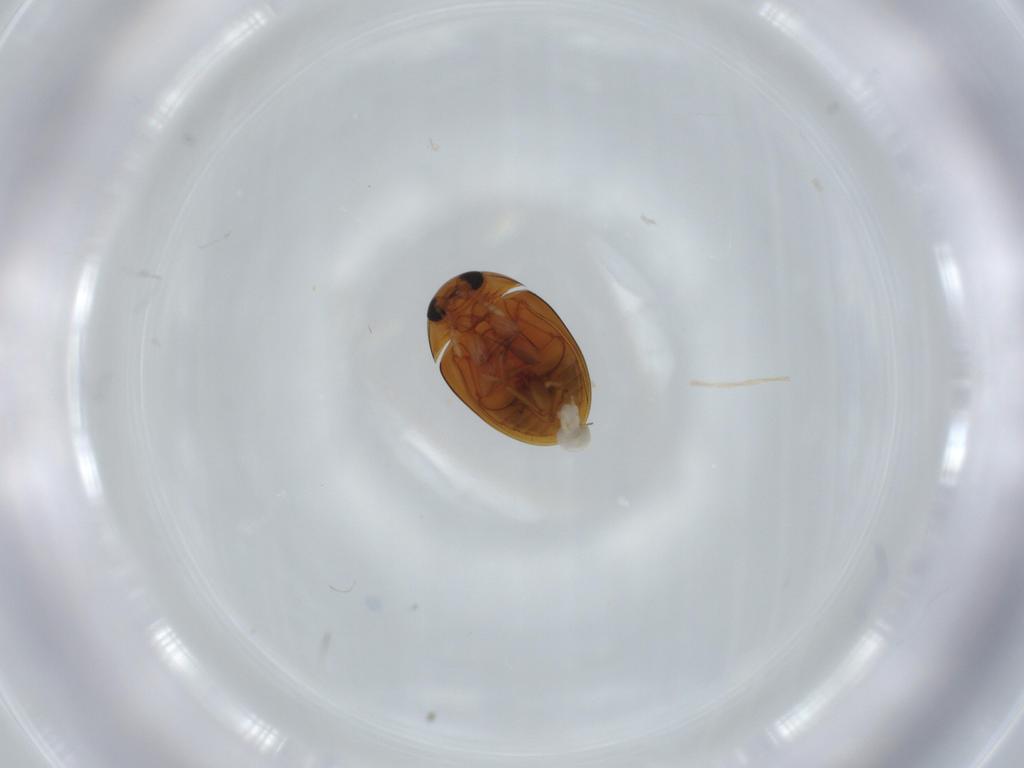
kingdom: Animalia
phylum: Arthropoda
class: Insecta
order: Coleoptera
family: Phalacridae
